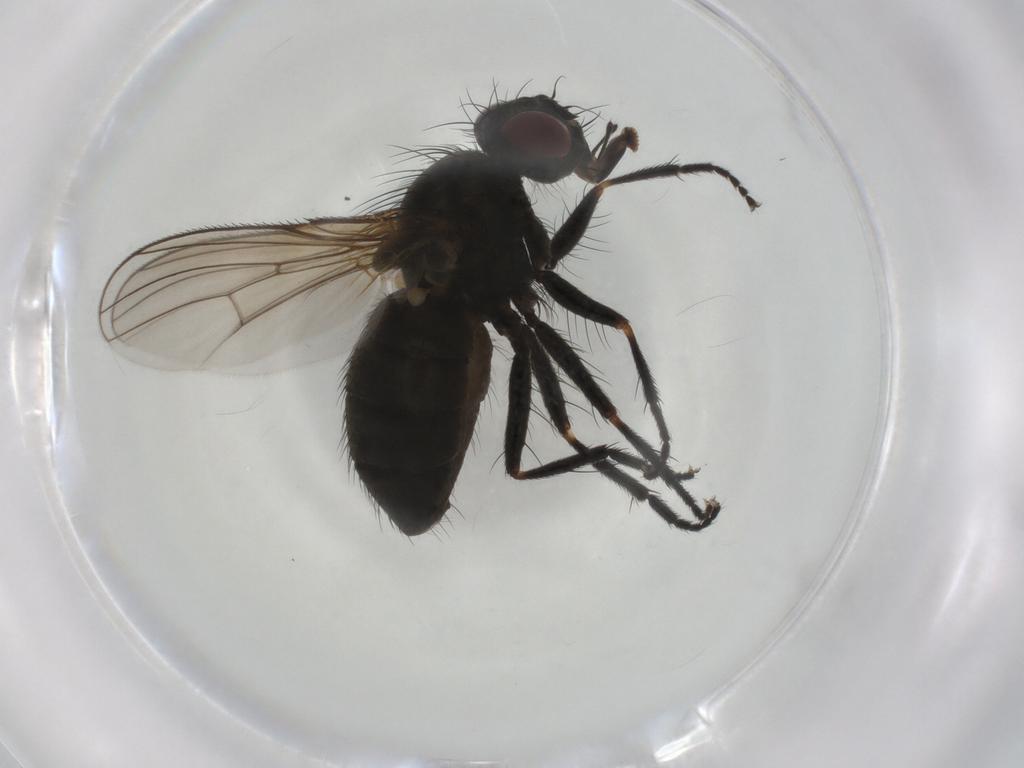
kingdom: Animalia
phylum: Arthropoda
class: Insecta
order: Diptera
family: Muscidae
